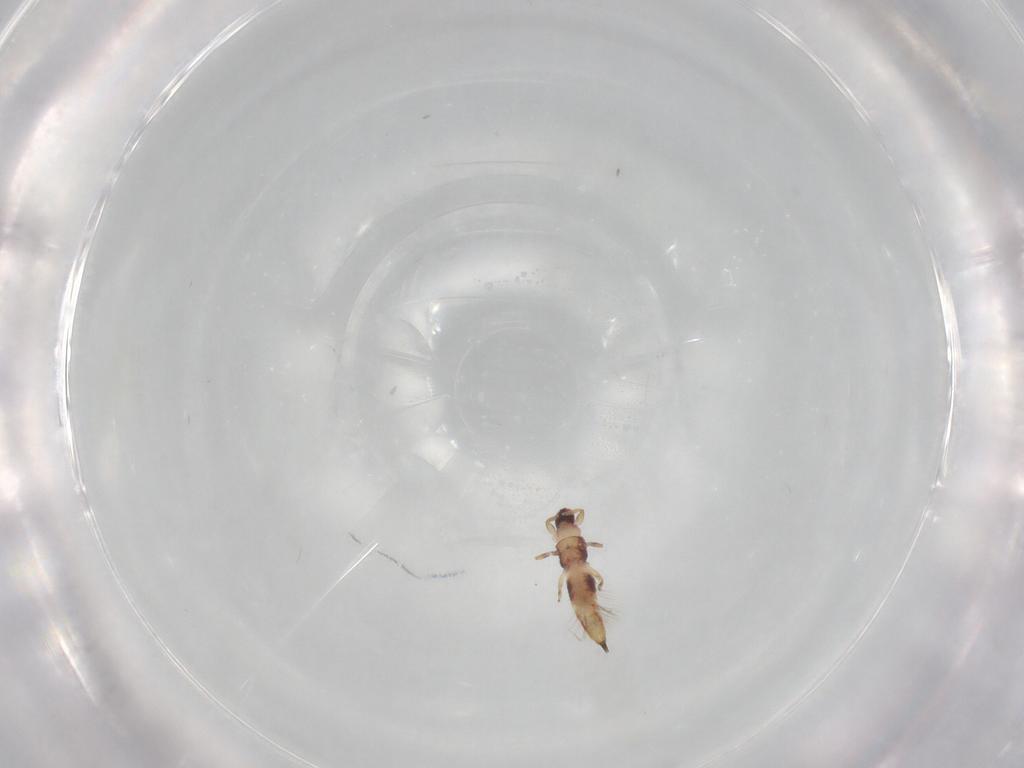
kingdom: Animalia
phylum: Arthropoda
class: Insecta
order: Thysanoptera
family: Phlaeothripidae
